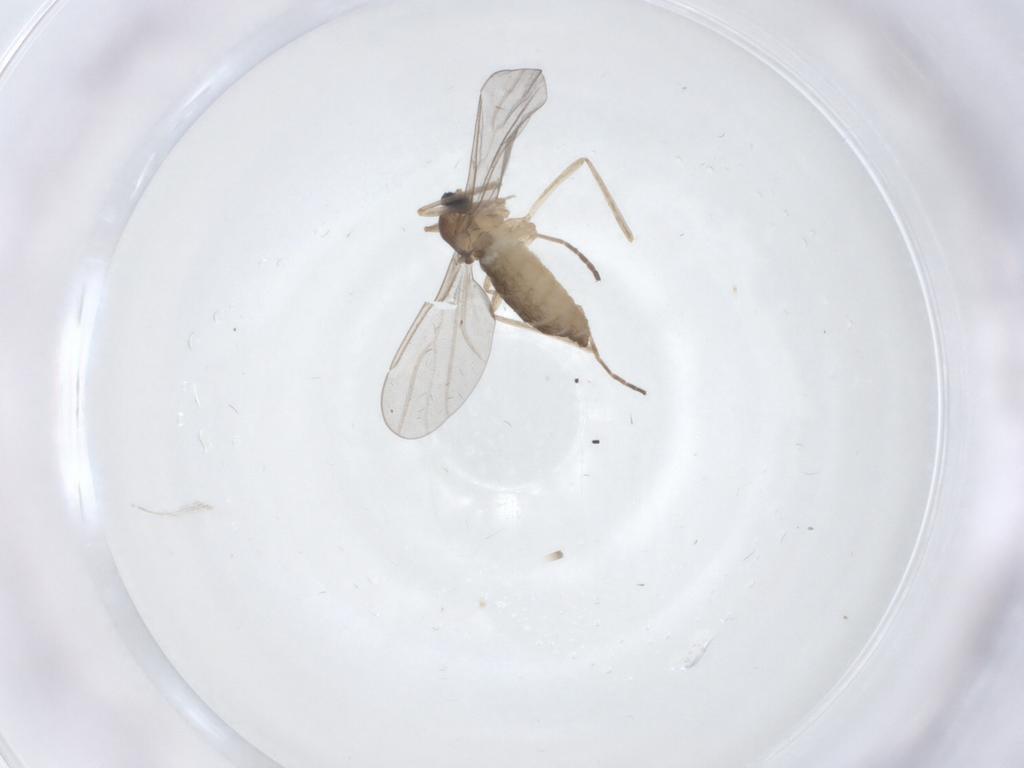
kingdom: Animalia
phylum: Arthropoda
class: Insecta
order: Diptera
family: Cecidomyiidae
